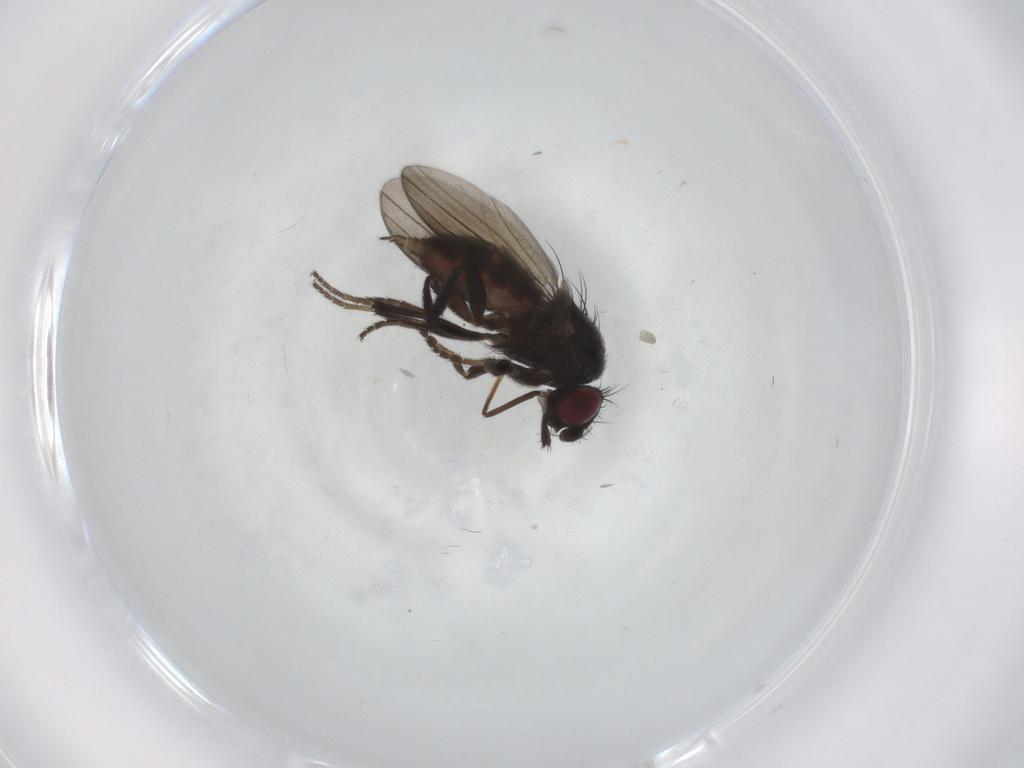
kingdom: Animalia
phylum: Arthropoda
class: Insecta
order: Diptera
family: Milichiidae
